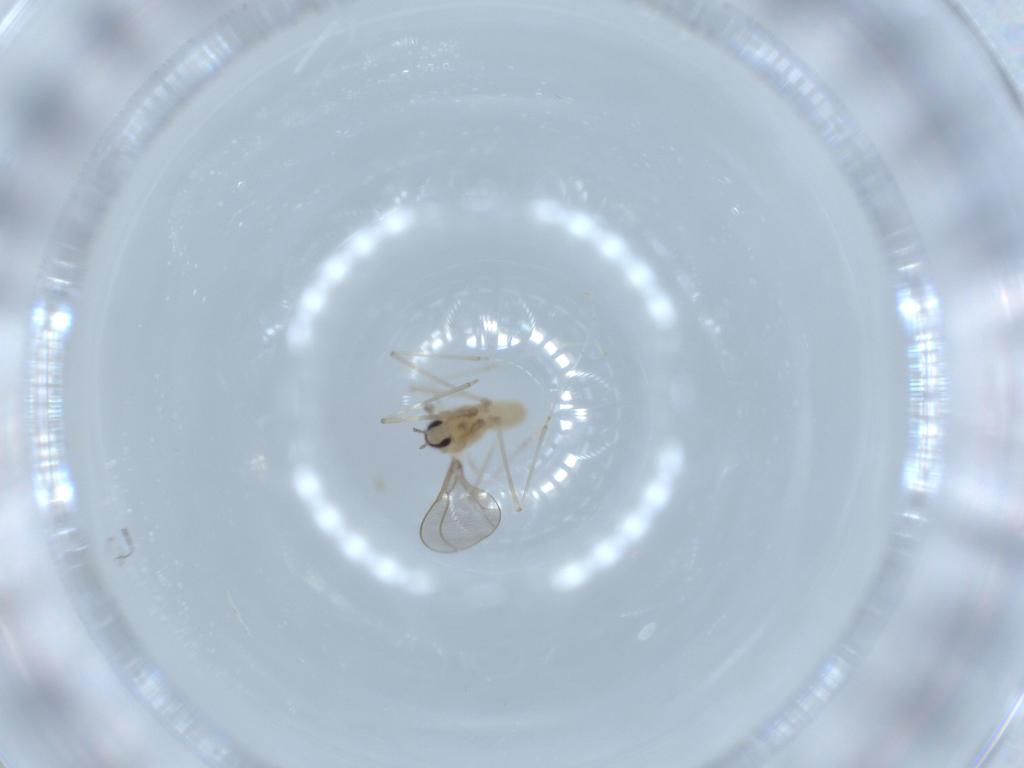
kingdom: Animalia
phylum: Arthropoda
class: Insecta
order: Diptera
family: Cecidomyiidae
